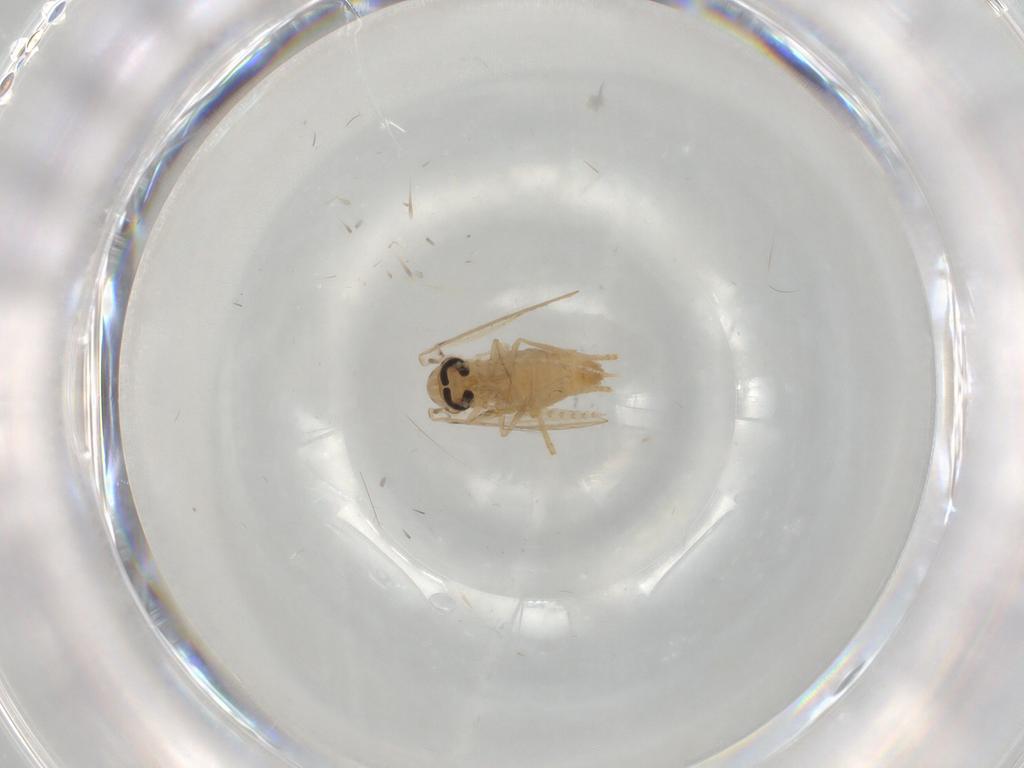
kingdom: Animalia
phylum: Arthropoda
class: Insecta
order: Diptera
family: Psychodidae
